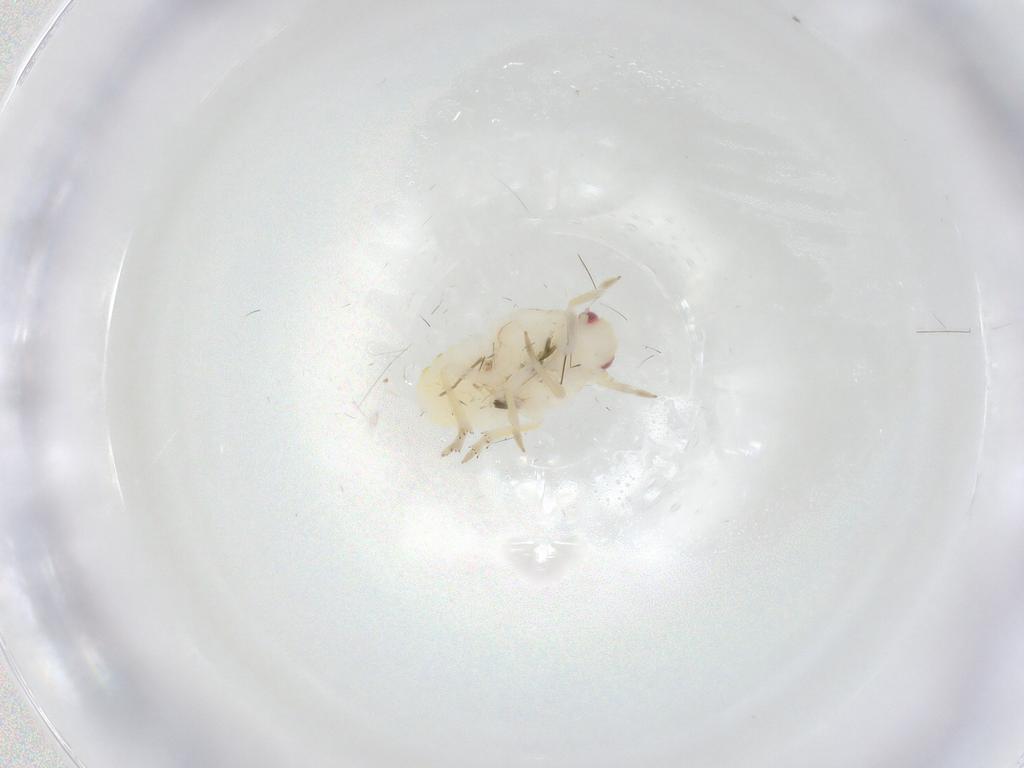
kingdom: Animalia
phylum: Arthropoda
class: Insecta
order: Hemiptera
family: Flatidae
